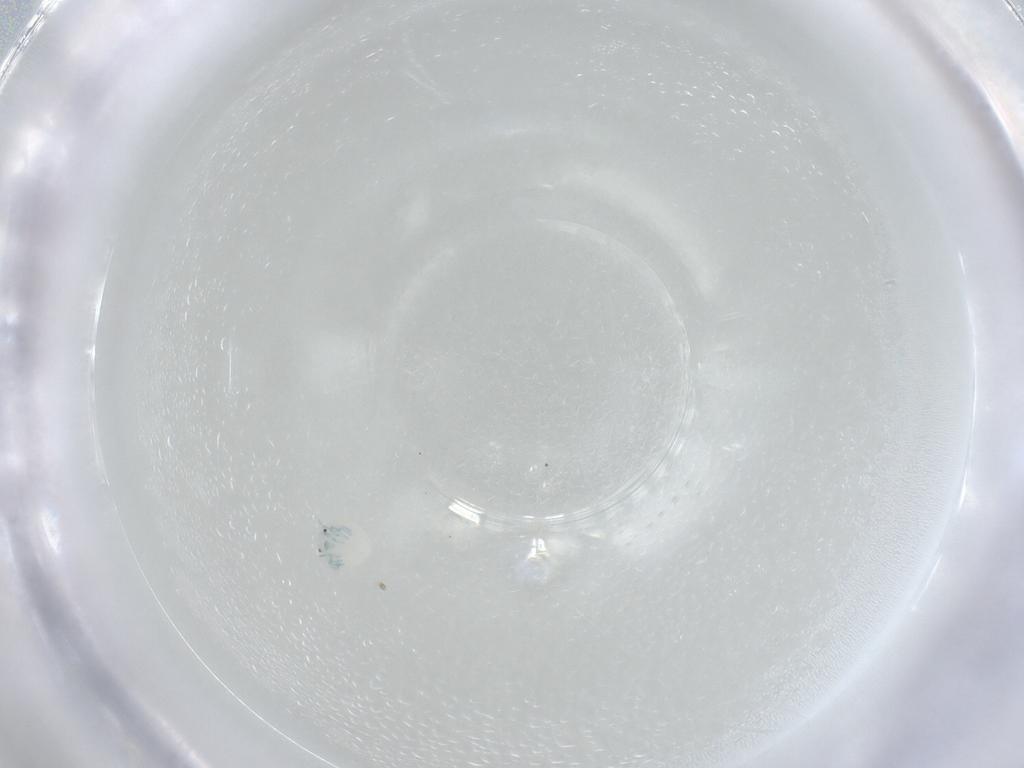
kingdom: Animalia
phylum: Arthropoda
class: Arachnida
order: Trombidiformes
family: Arrenuridae
